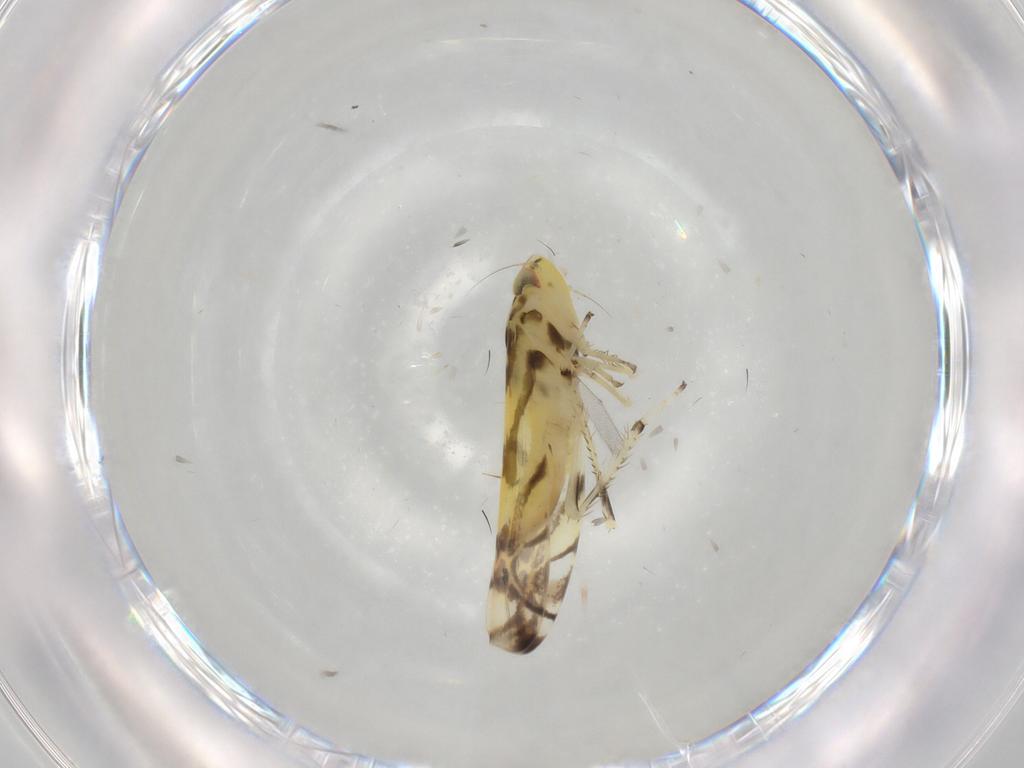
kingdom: Animalia
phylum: Arthropoda
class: Insecta
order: Hemiptera
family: Cicadellidae
